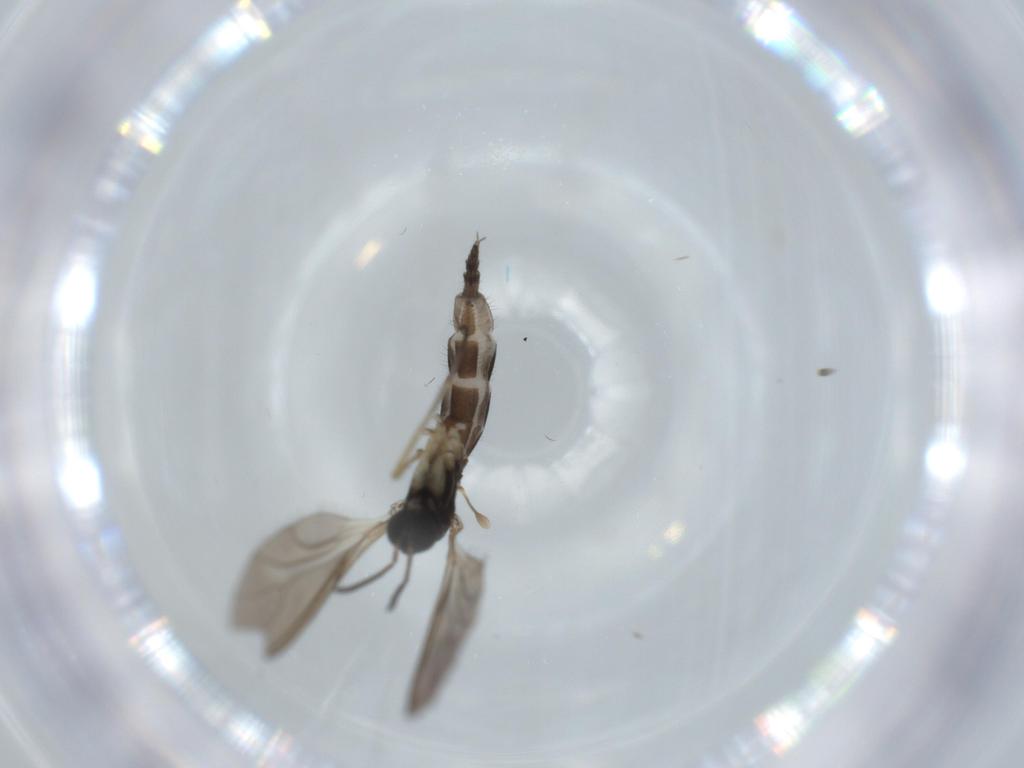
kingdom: Animalia
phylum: Arthropoda
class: Insecta
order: Diptera
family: Sciaridae
